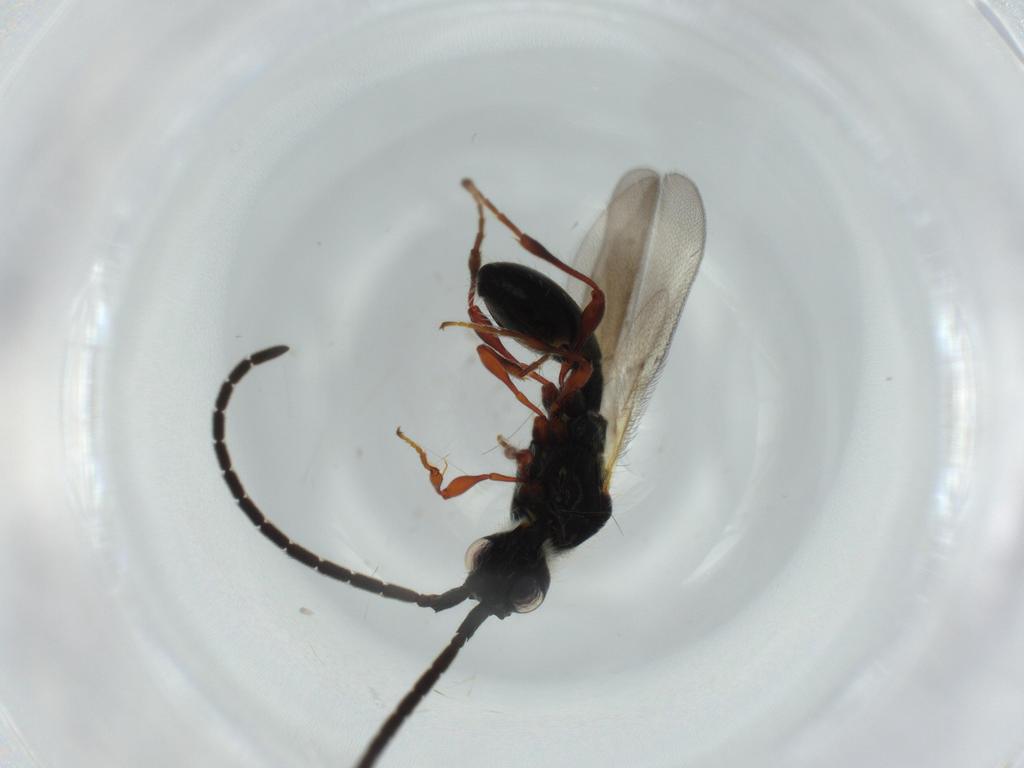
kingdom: Animalia
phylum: Arthropoda
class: Insecta
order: Hymenoptera
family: Diapriidae
